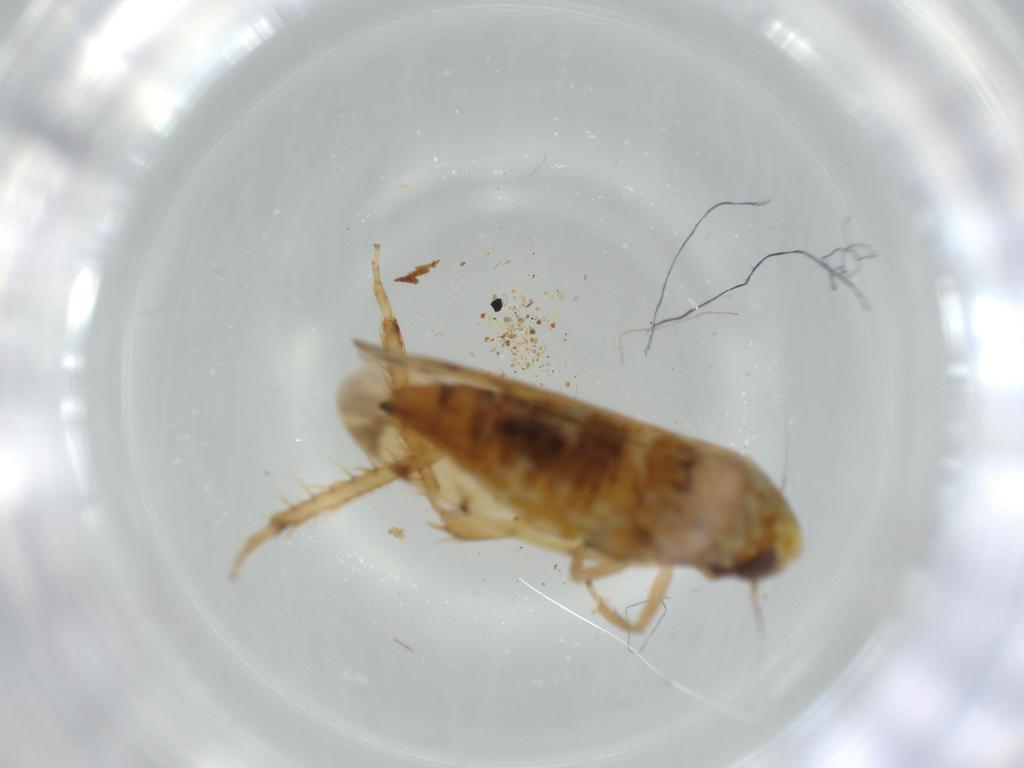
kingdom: Animalia
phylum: Arthropoda
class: Insecta
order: Hemiptera
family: Cicadellidae
